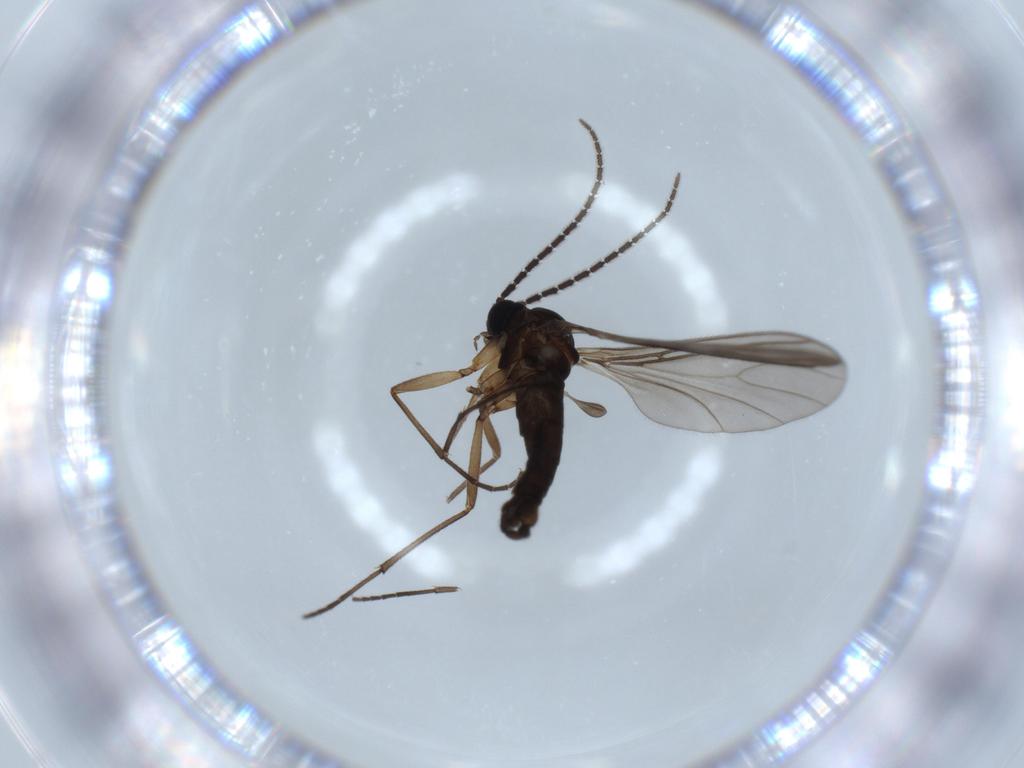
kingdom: Animalia
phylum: Arthropoda
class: Insecta
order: Diptera
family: Sciaridae
